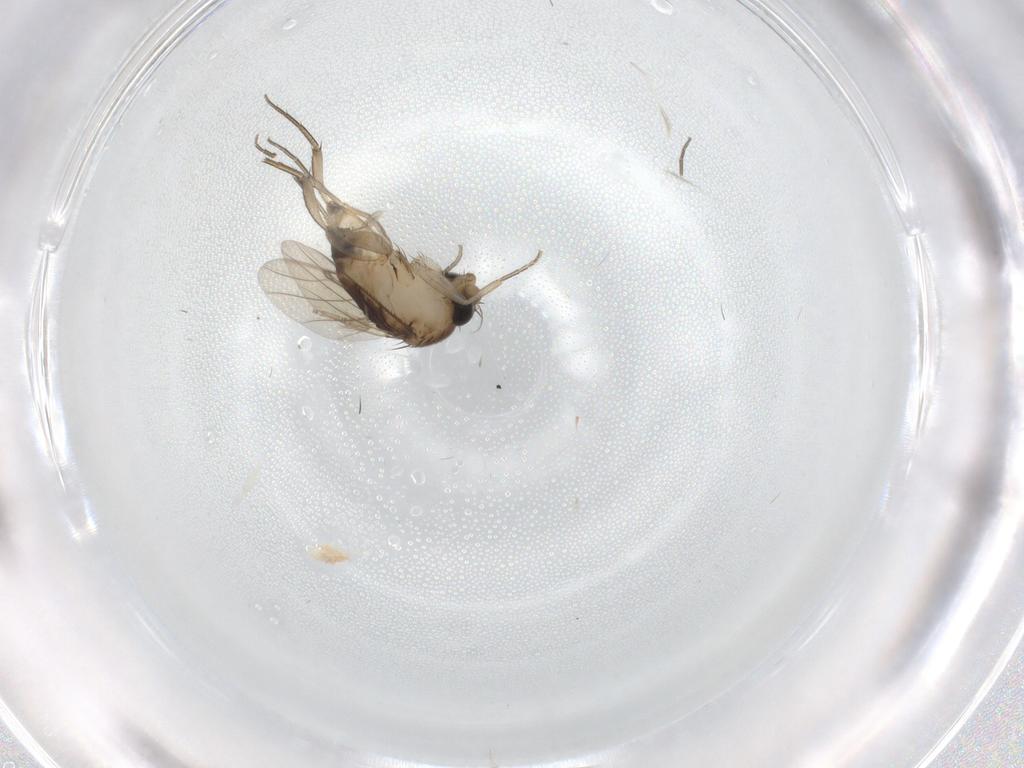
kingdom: Animalia
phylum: Arthropoda
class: Insecta
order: Diptera
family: Phoridae
